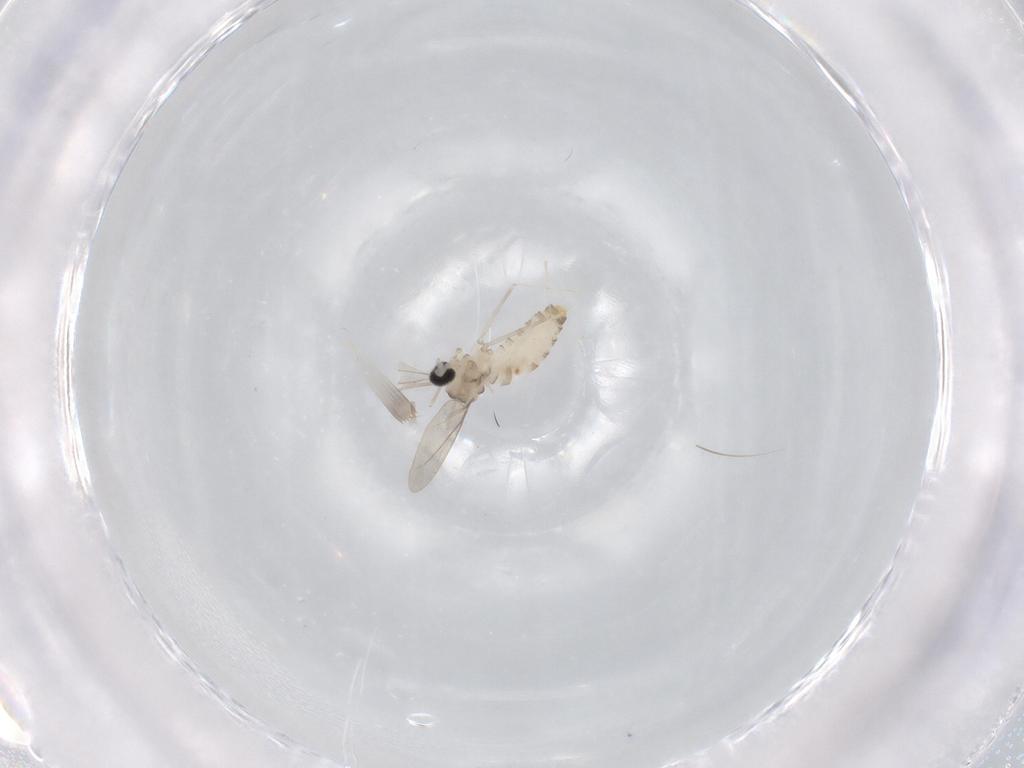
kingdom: Animalia
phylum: Arthropoda
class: Insecta
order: Diptera
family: Cecidomyiidae
